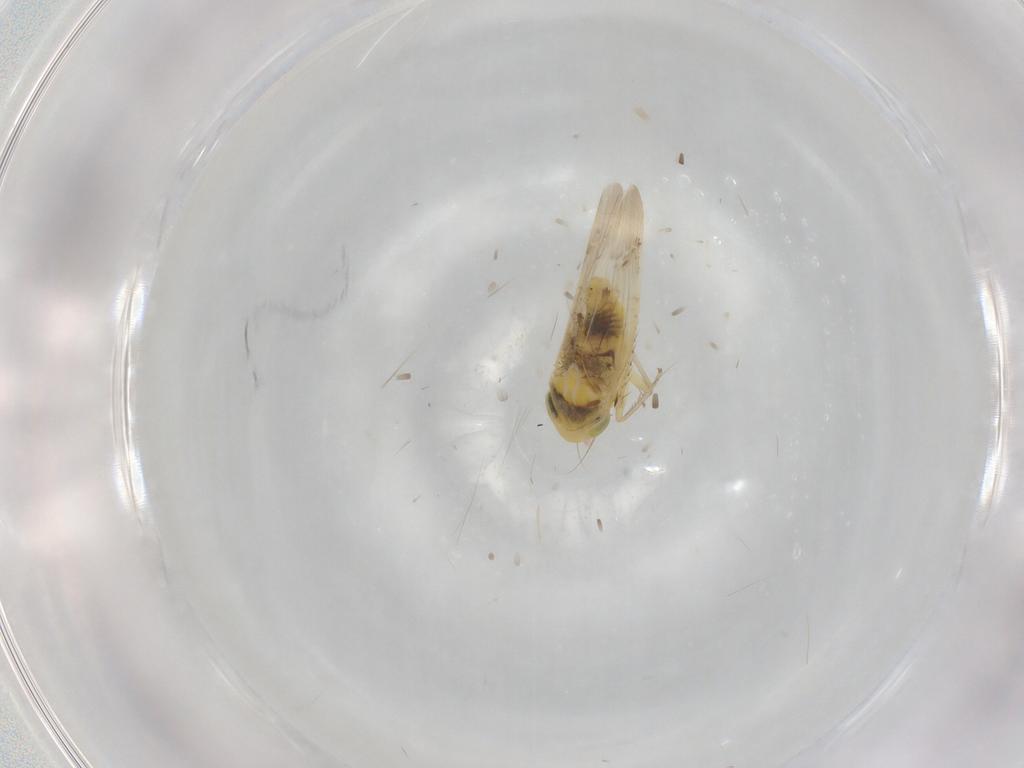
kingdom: Animalia
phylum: Arthropoda
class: Insecta
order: Hemiptera
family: Cicadellidae
